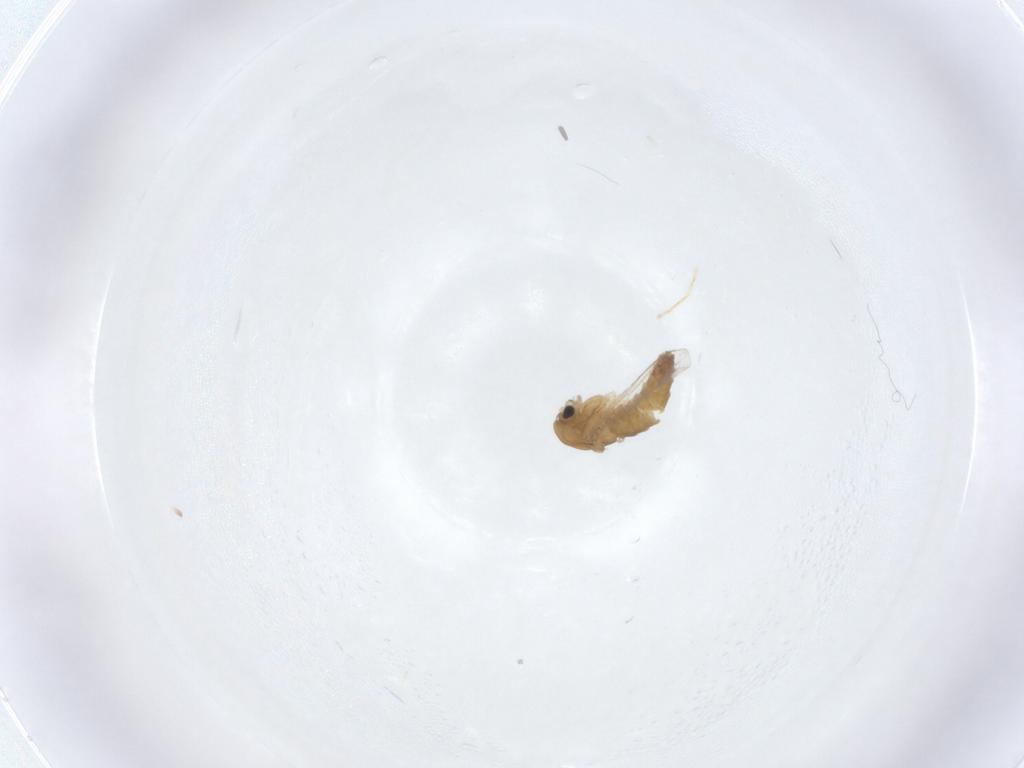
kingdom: Animalia
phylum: Arthropoda
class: Insecta
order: Diptera
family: Chironomidae
